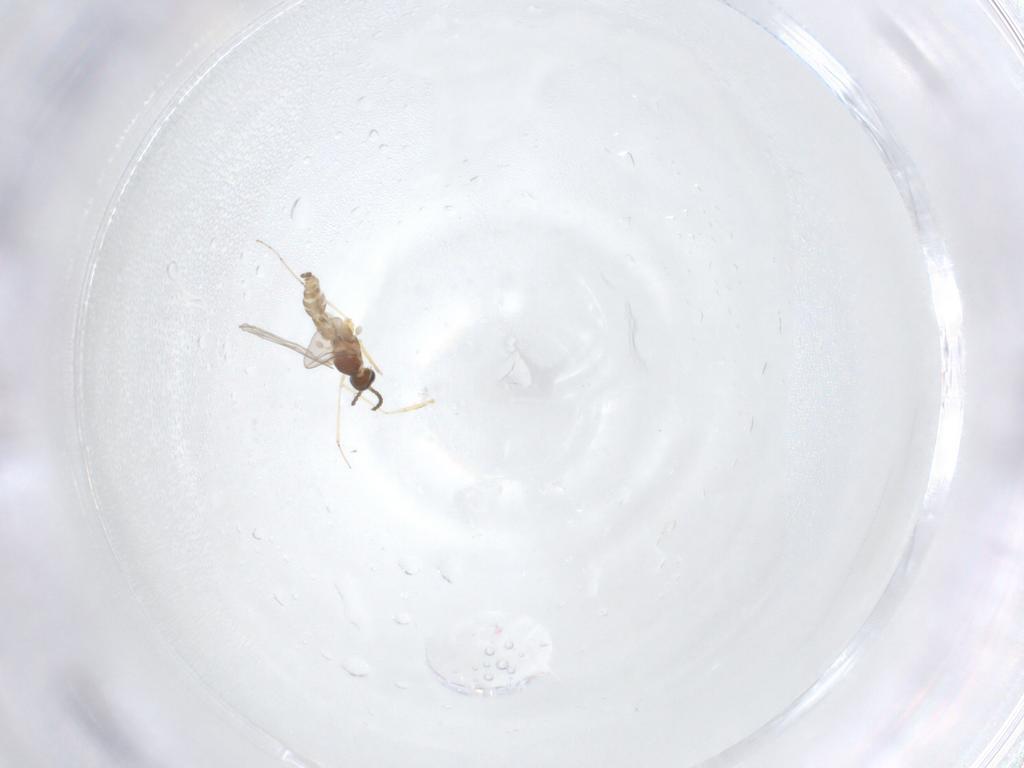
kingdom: Animalia
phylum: Arthropoda
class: Insecta
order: Diptera
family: Cecidomyiidae
